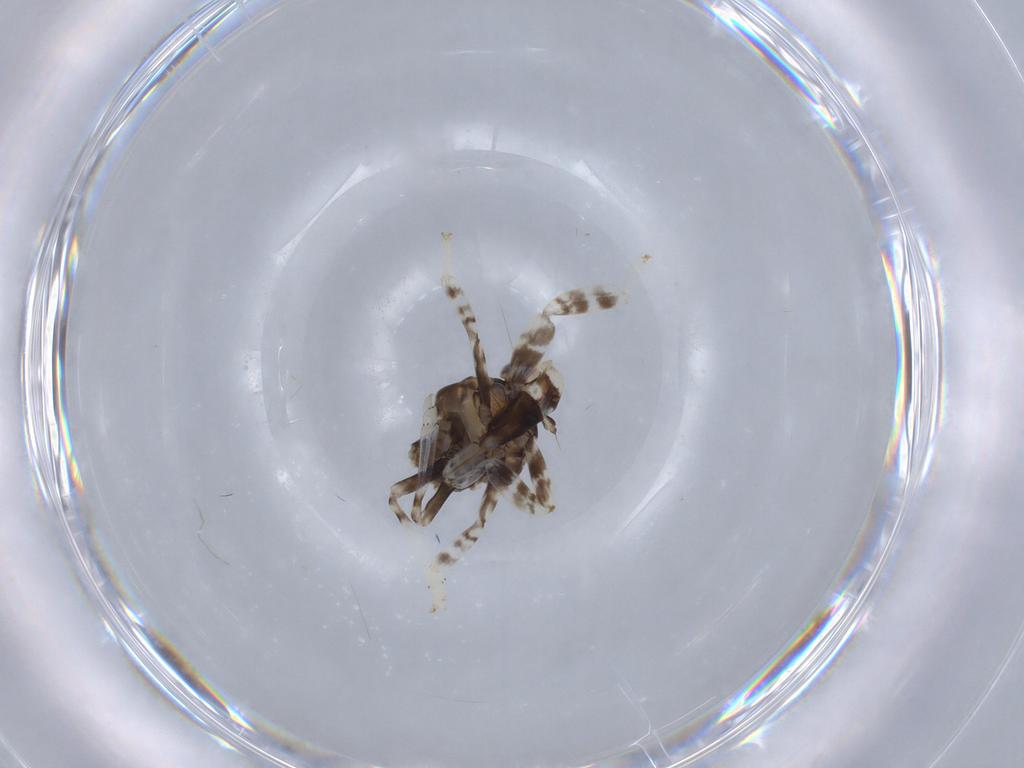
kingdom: Animalia
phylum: Arthropoda
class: Insecta
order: Hemiptera
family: Fulgoroidea_incertae_sedis
